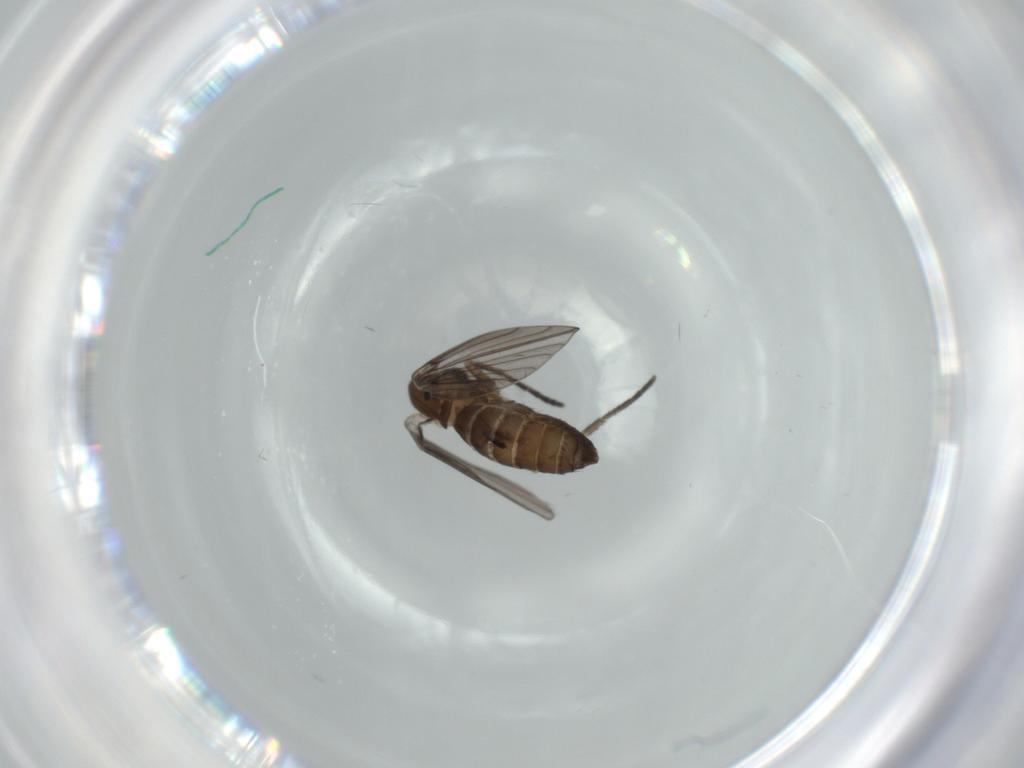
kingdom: Animalia
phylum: Arthropoda
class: Insecta
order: Diptera
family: Psychodidae
